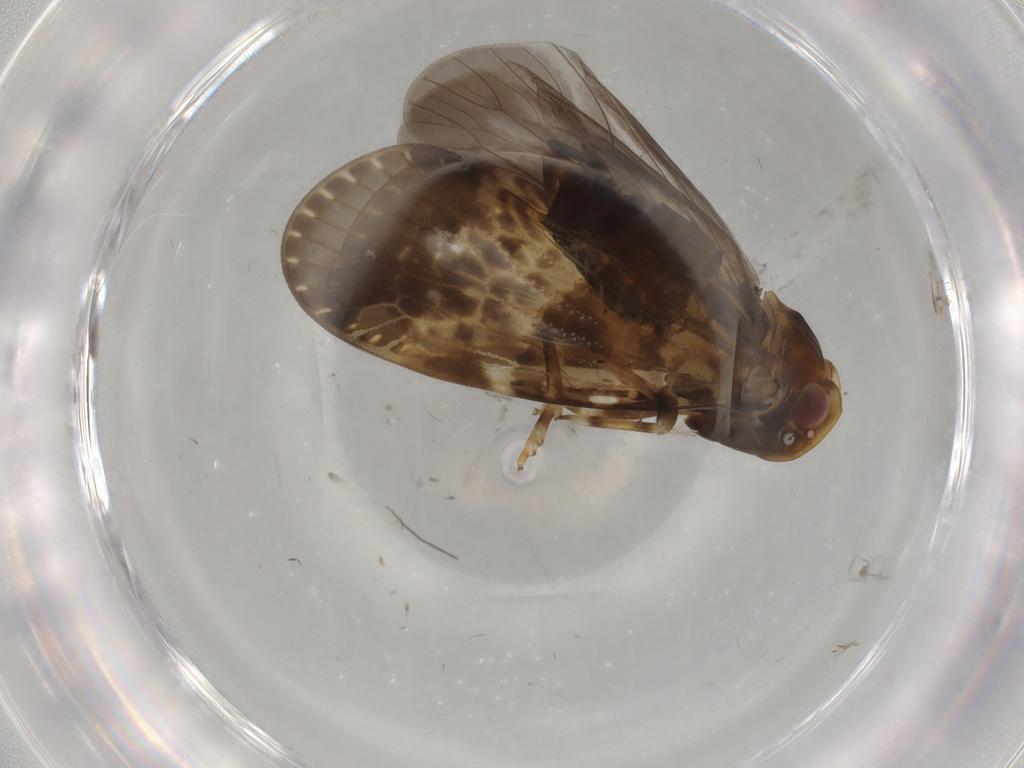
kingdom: Animalia
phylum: Arthropoda
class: Insecta
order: Hemiptera
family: Cixiidae
